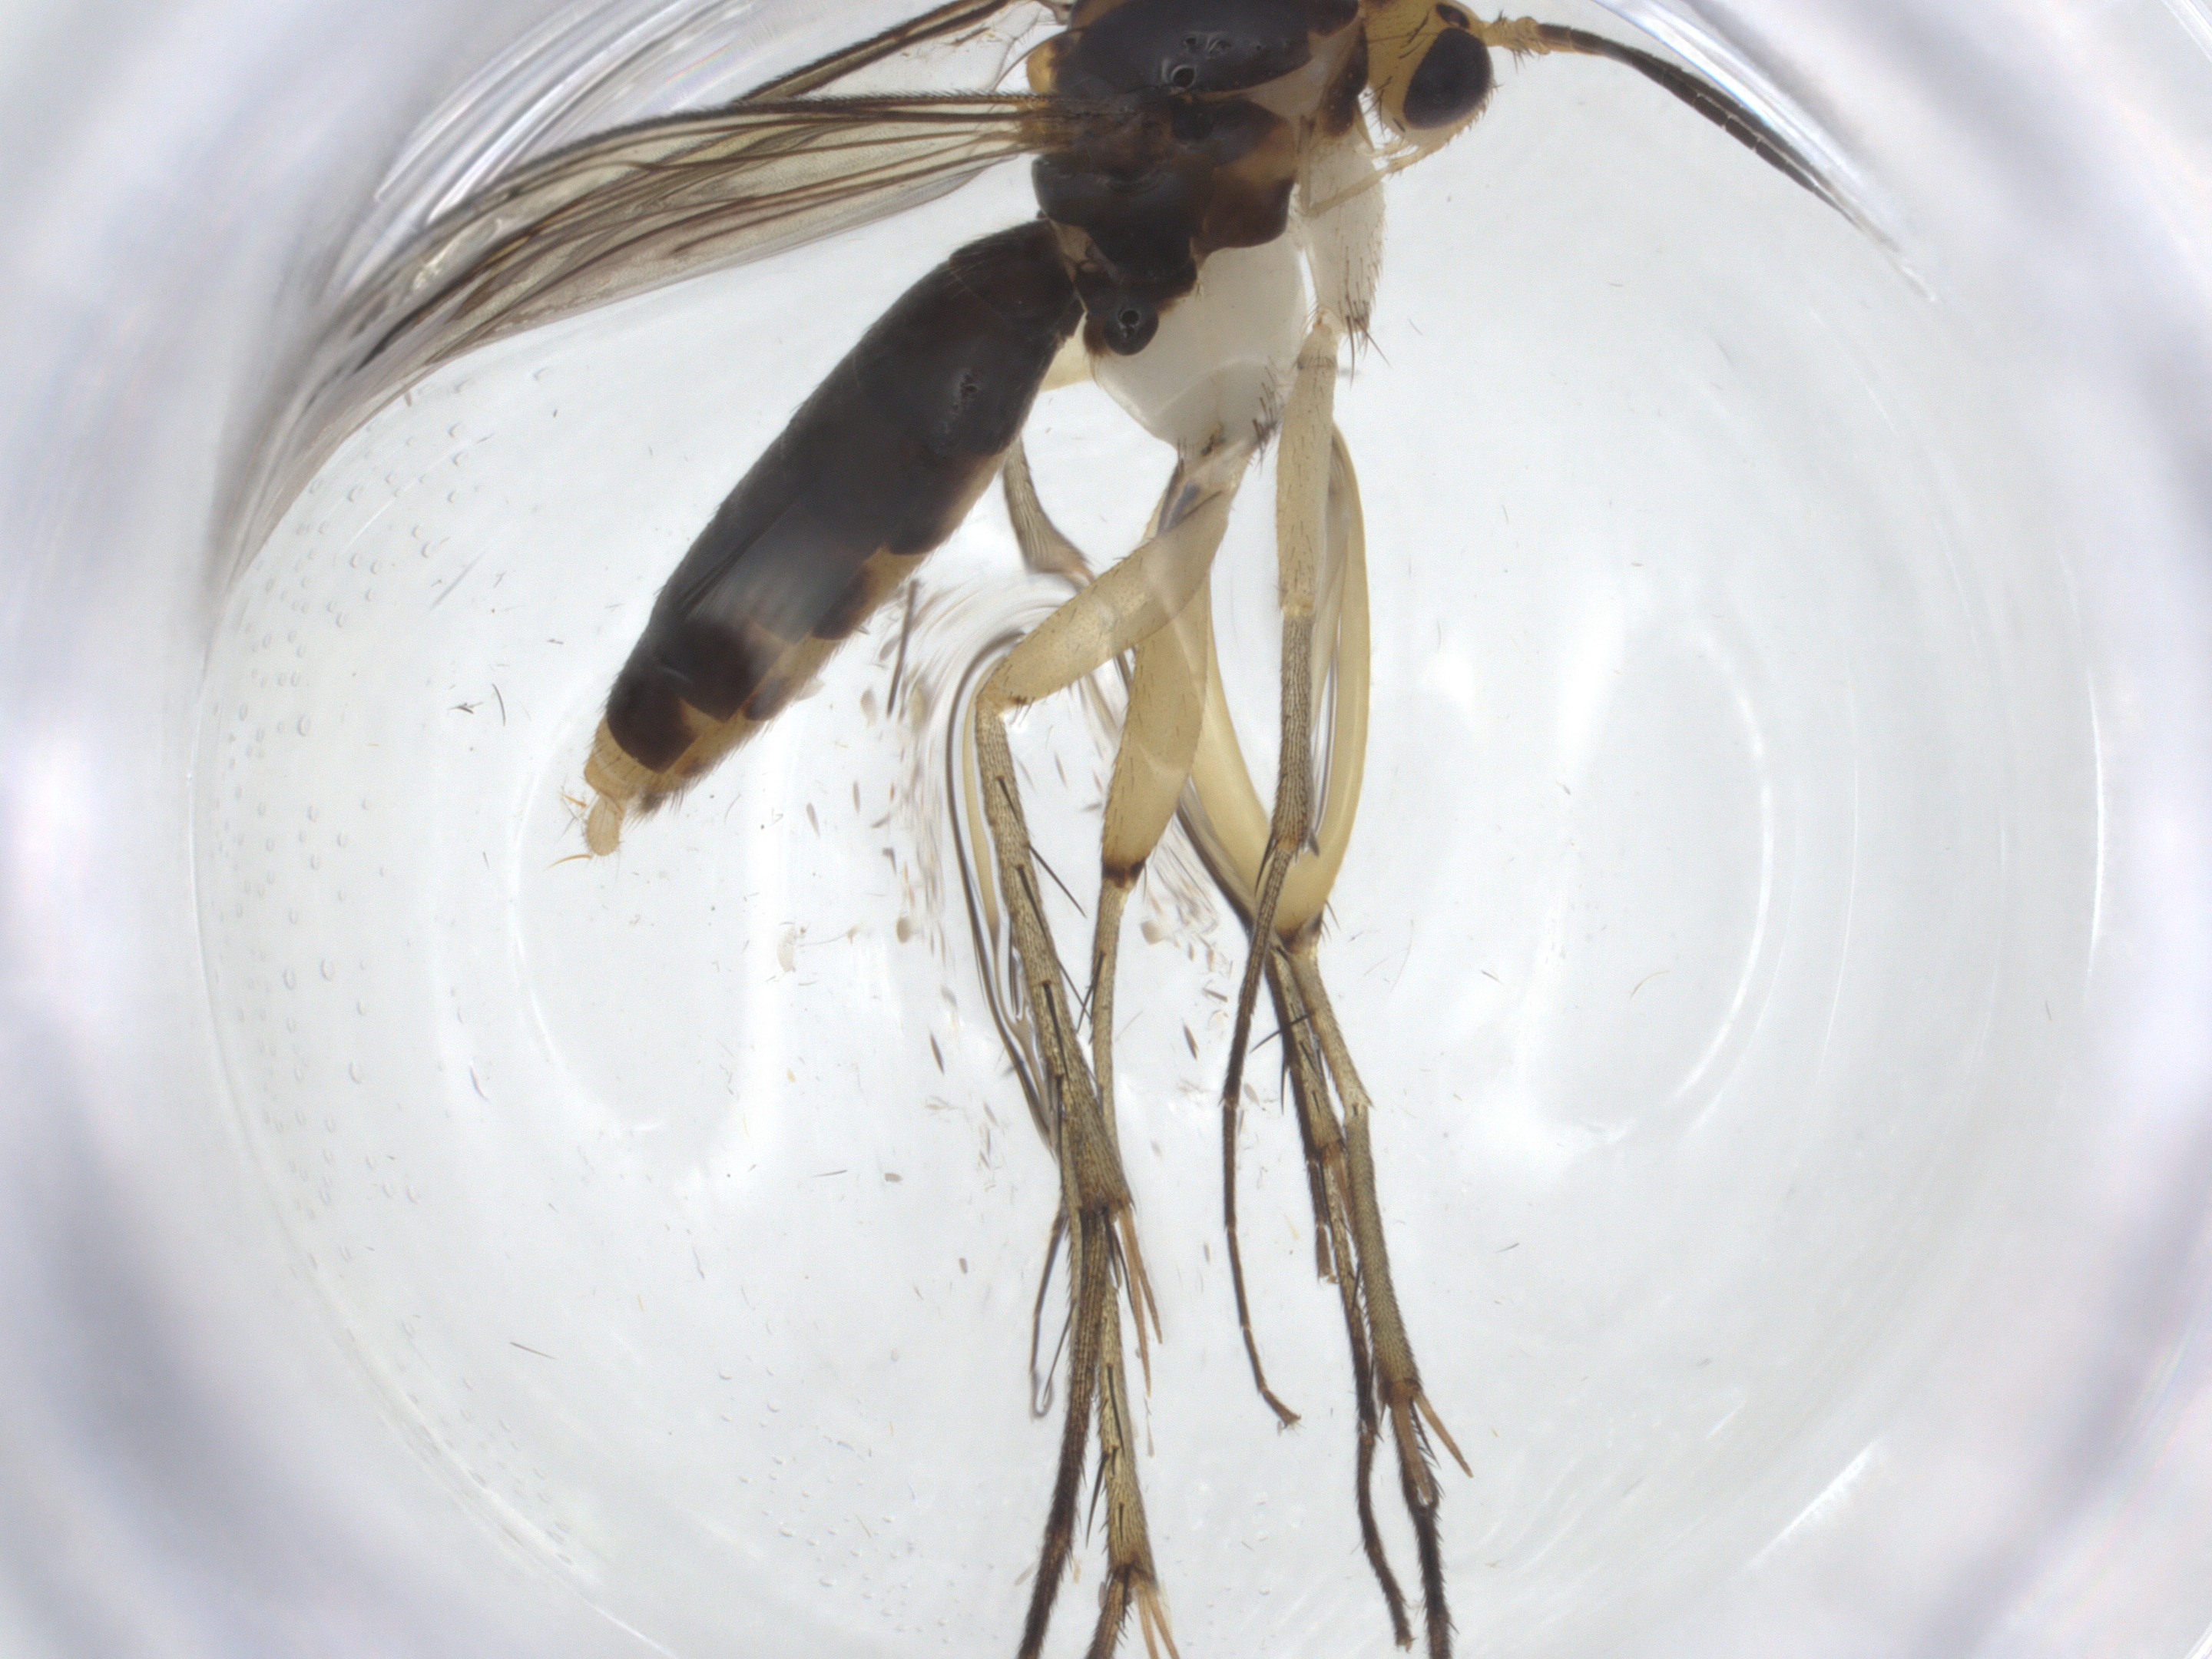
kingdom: Animalia
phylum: Arthropoda
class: Insecta
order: Diptera
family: Mycetophilidae
